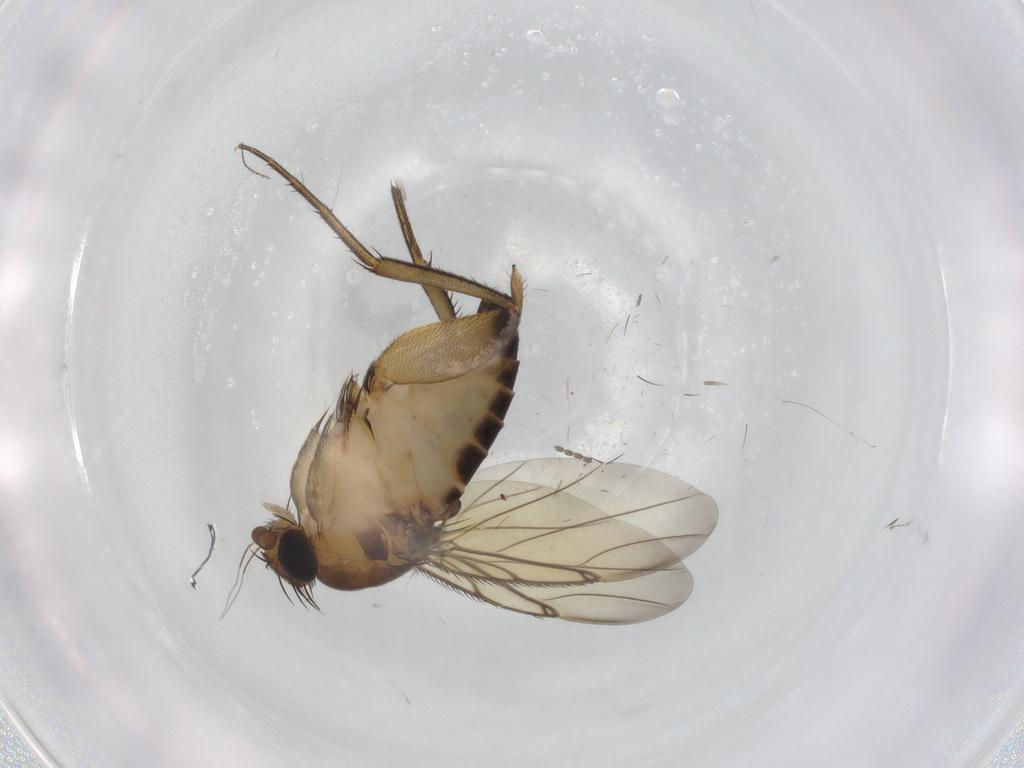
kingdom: Animalia
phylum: Arthropoda
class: Insecta
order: Diptera
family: Phoridae
